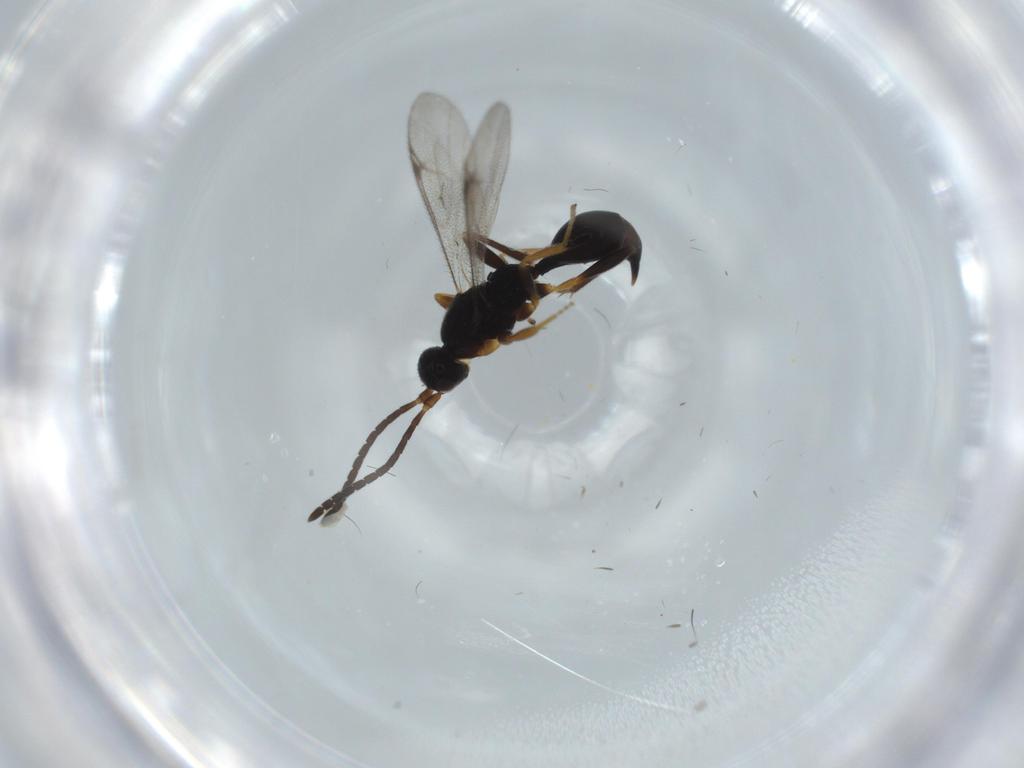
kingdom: Animalia
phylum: Arthropoda
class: Insecta
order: Hymenoptera
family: Proctotrupidae
